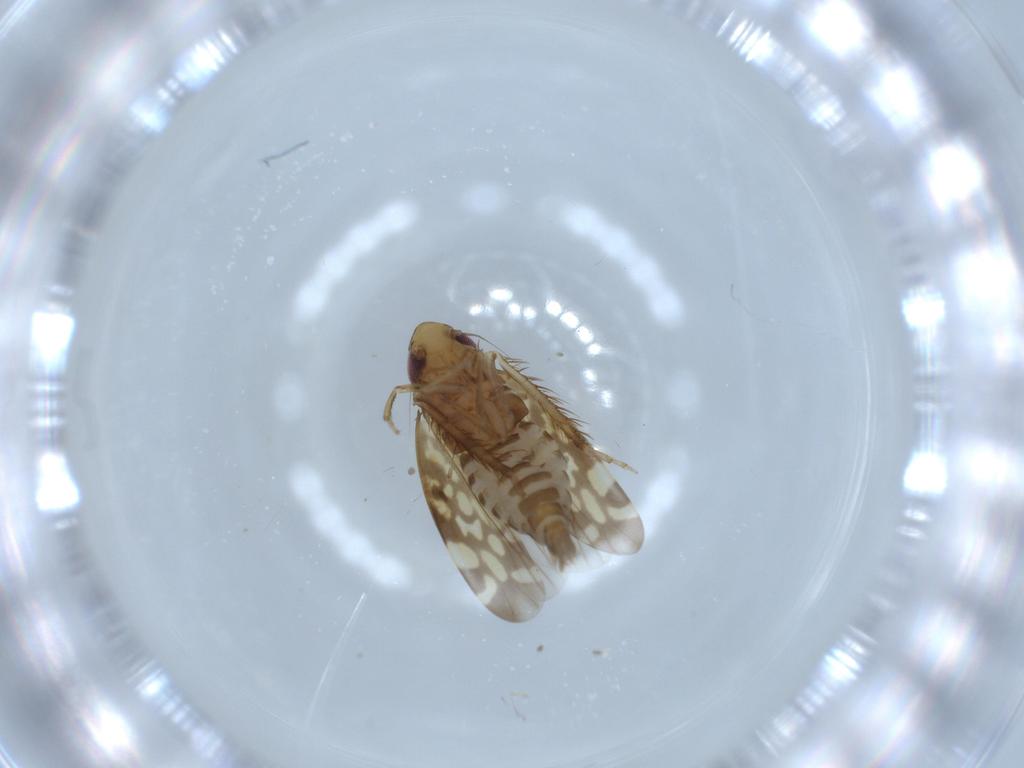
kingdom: Animalia
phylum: Arthropoda
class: Insecta
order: Hemiptera
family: Cicadellidae
